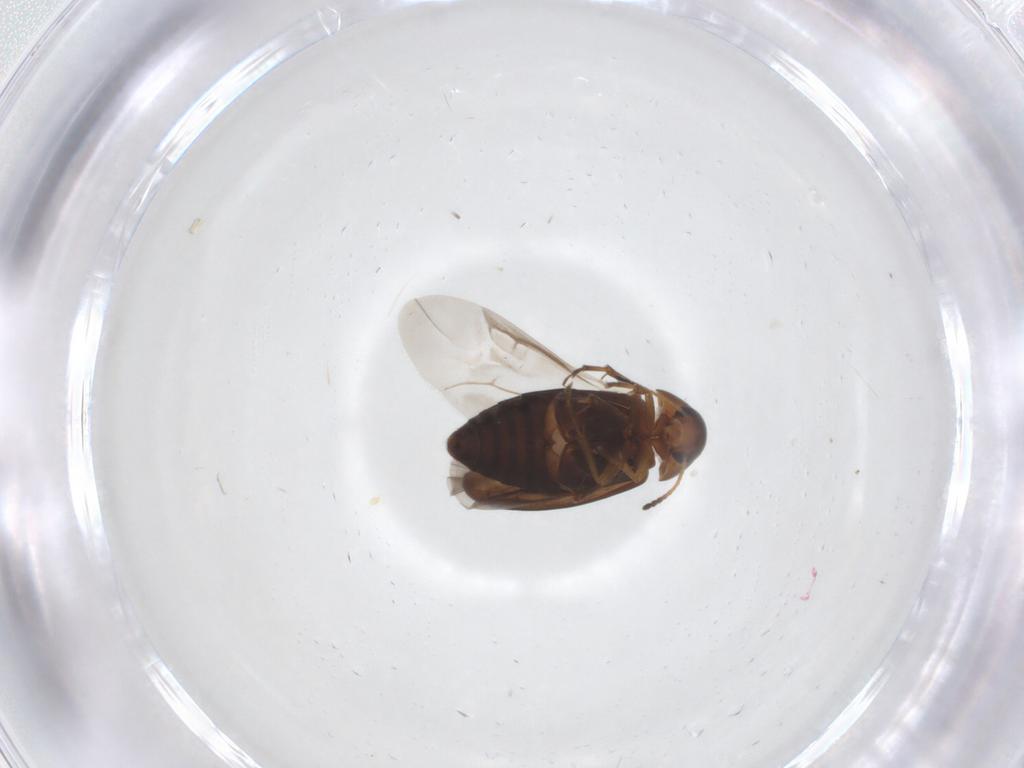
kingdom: Animalia
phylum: Arthropoda
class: Insecta
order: Coleoptera
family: Scraptiidae
